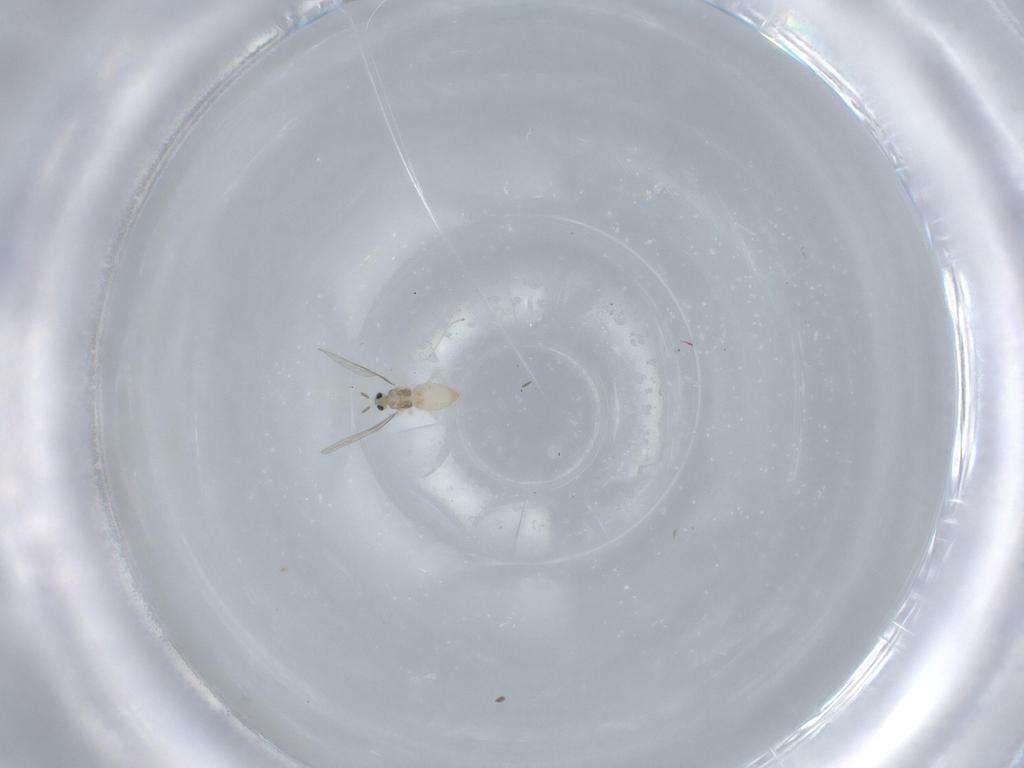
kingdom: Animalia
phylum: Arthropoda
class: Insecta
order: Diptera
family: Cecidomyiidae
